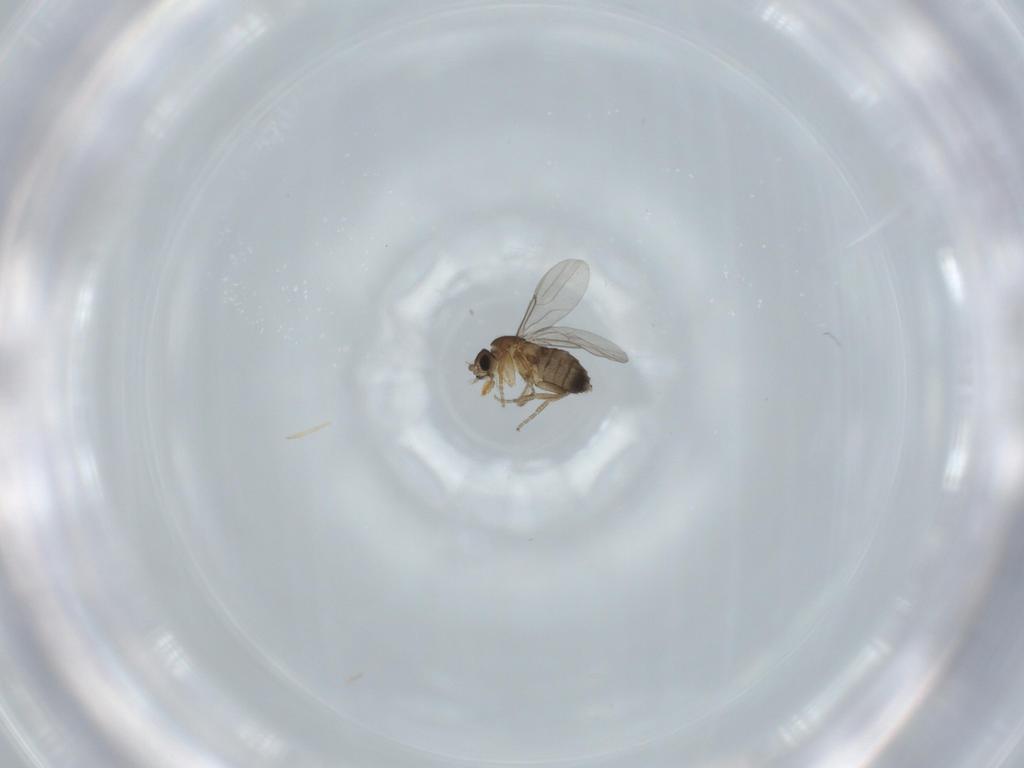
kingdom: Animalia
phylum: Arthropoda
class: Insecta
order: Diptera
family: Phoridae
